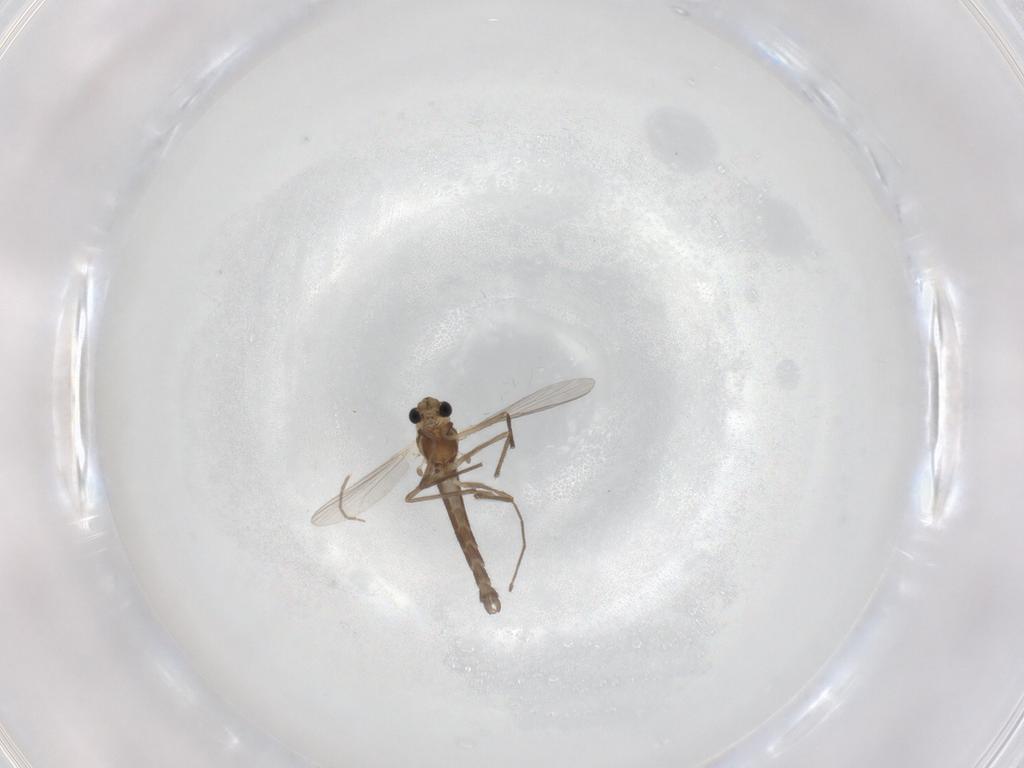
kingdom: Animalia
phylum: Arthropoda
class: Insecta
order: Diptera
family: Chironomidae
